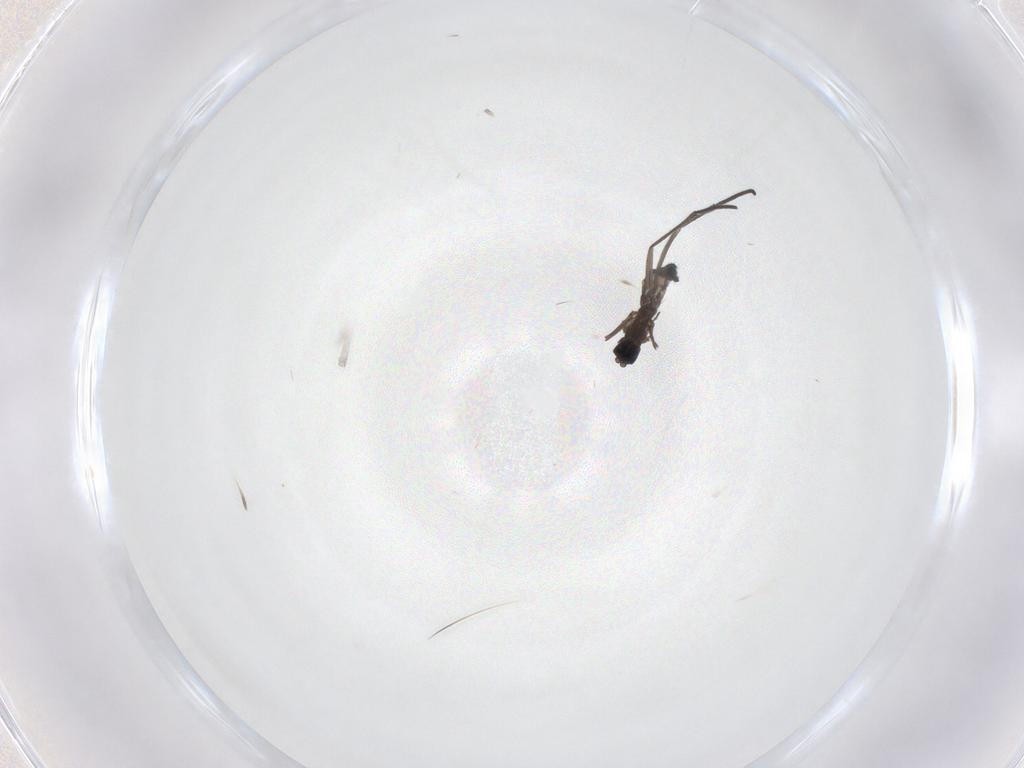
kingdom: Animalia
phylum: Arthropoda
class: Insecta
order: Diptera
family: Sciaridae
